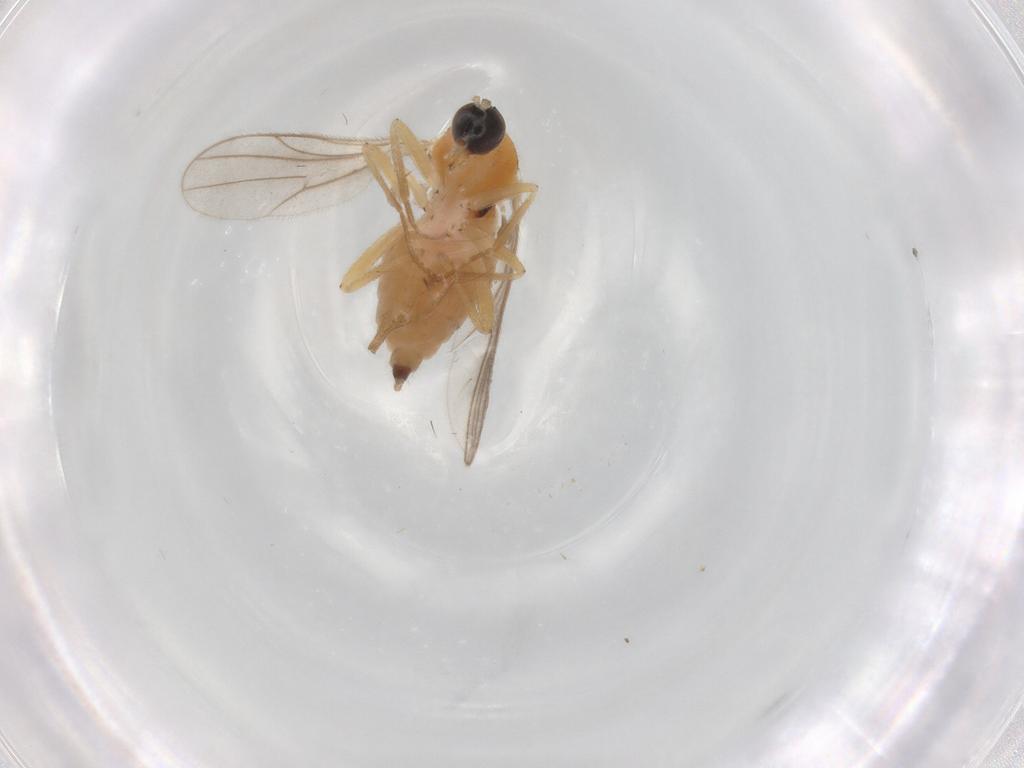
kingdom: Animalia
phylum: Arthropoda
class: Insecta
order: Diptera
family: Hybotidae
